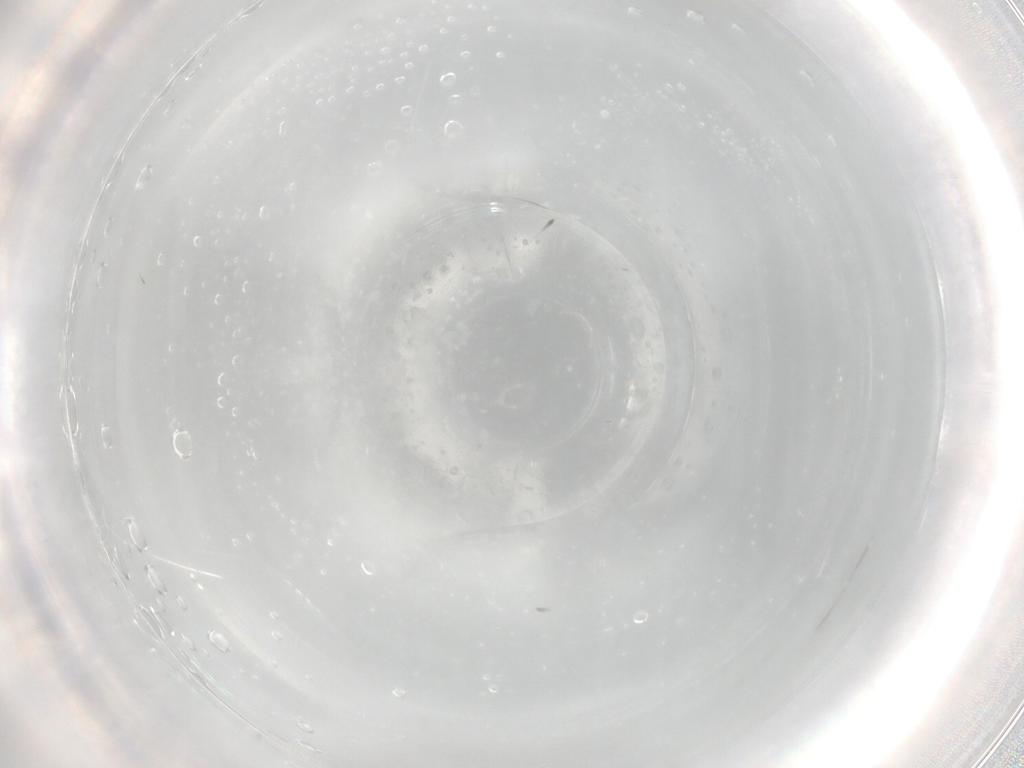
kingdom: Animalia
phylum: Arthropoda
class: Arachnida
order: Trombidiformes
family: Erythraeidae
